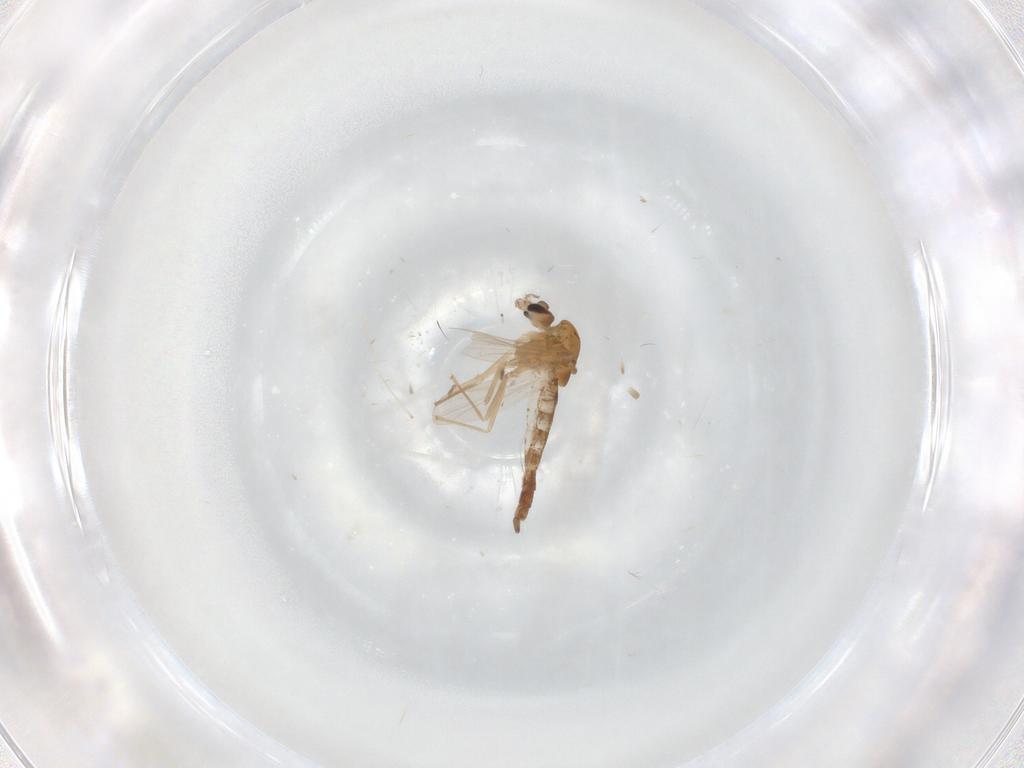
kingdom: Animalia
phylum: Arthropoda
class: Insecta
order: Diptera
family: Chironomidae
